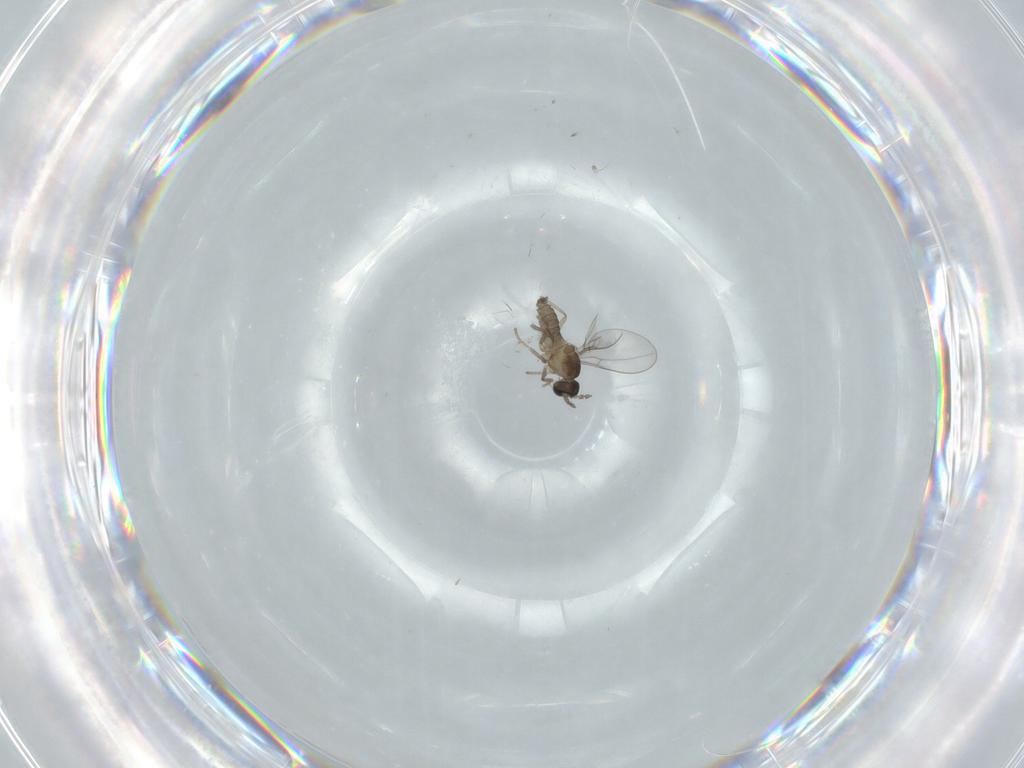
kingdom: Animalia
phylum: Arthropoda
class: Insecta
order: Diptera
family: Cecidomyiidae
